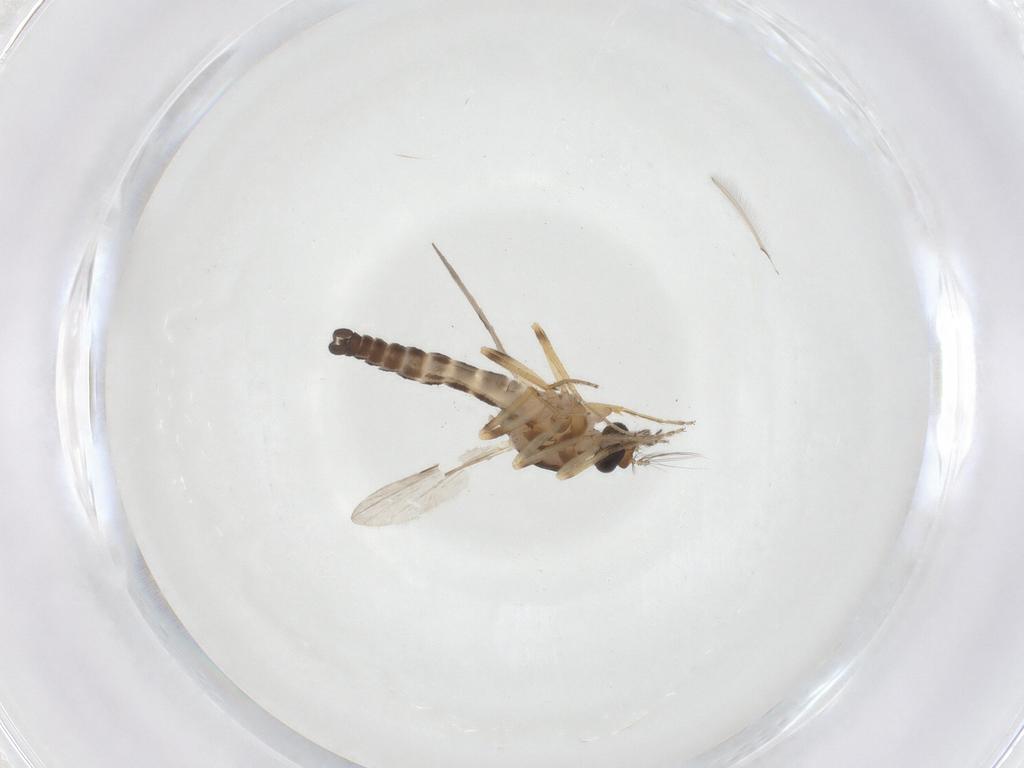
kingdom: Animalia
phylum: Arthropoda
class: Insecta
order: Diptera
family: Ceratopogonidae
